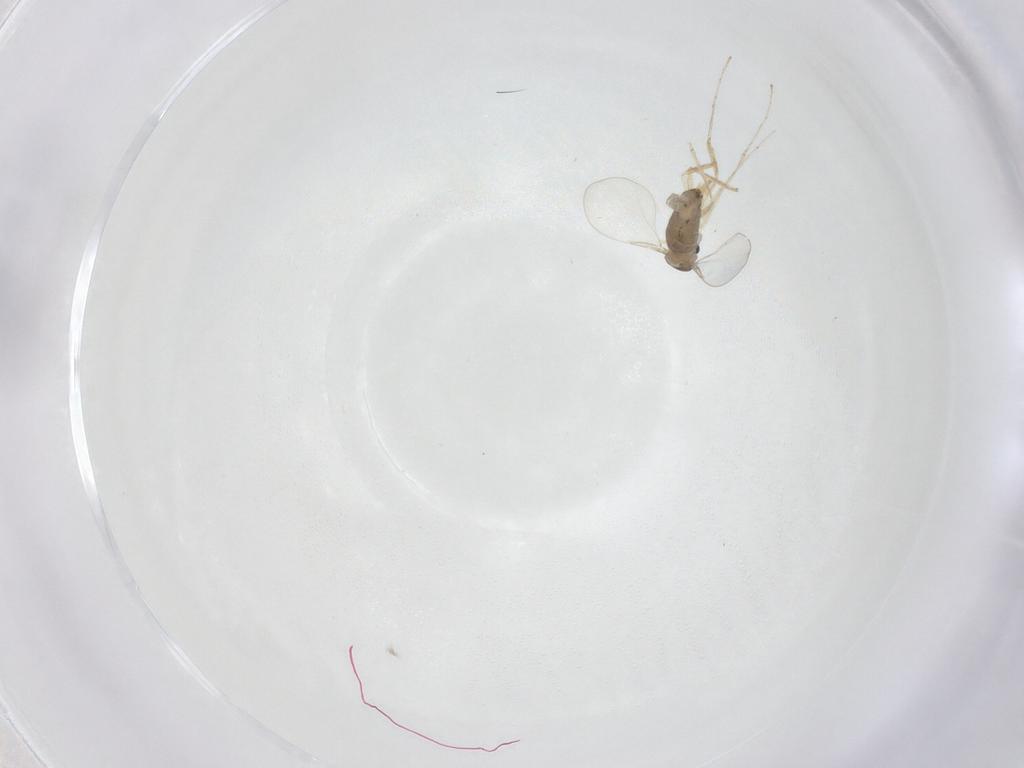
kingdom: Animalia
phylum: Arthropoda
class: Insecta
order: Diptera
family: Cecidomyiidae
